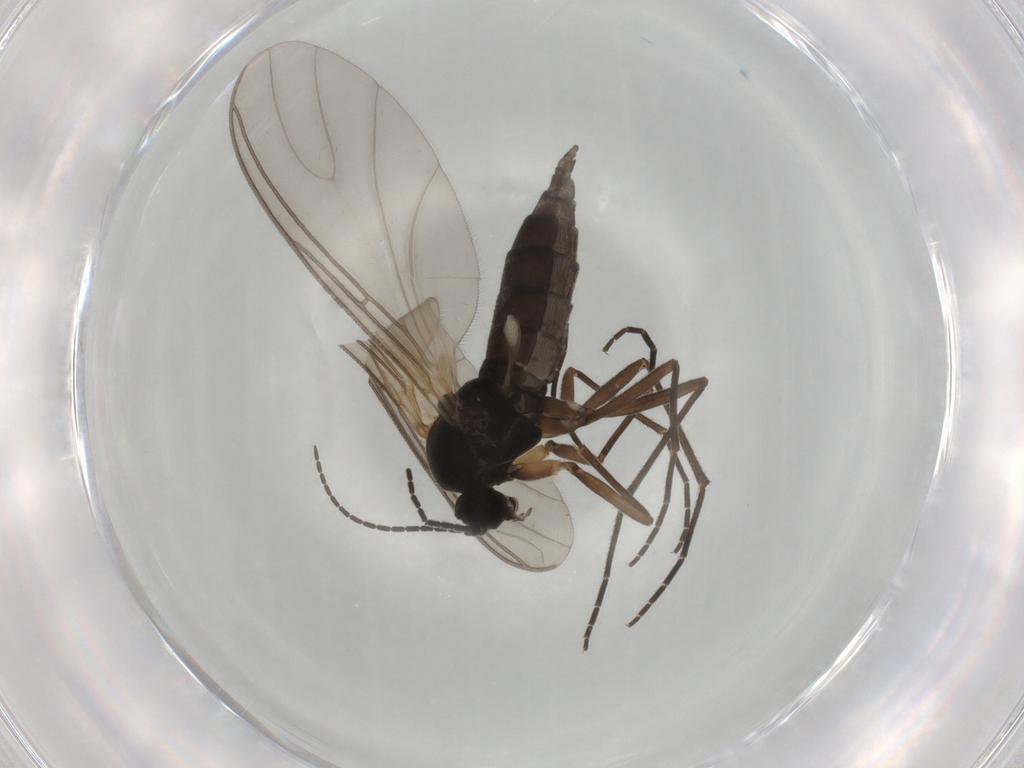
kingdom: Animalia
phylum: Arthropoda
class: Insecta
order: Diptera
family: Sciaridae
